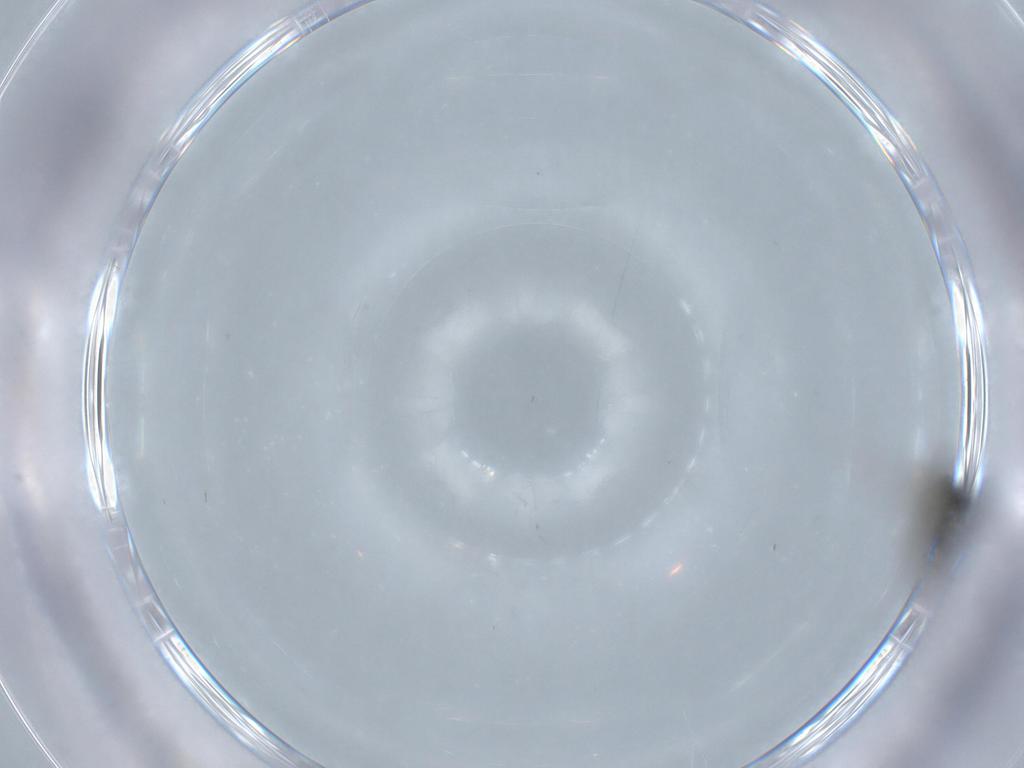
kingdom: Animalia
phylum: Arthropoda
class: Insecta
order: Diptera
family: Ceratopogonidae
